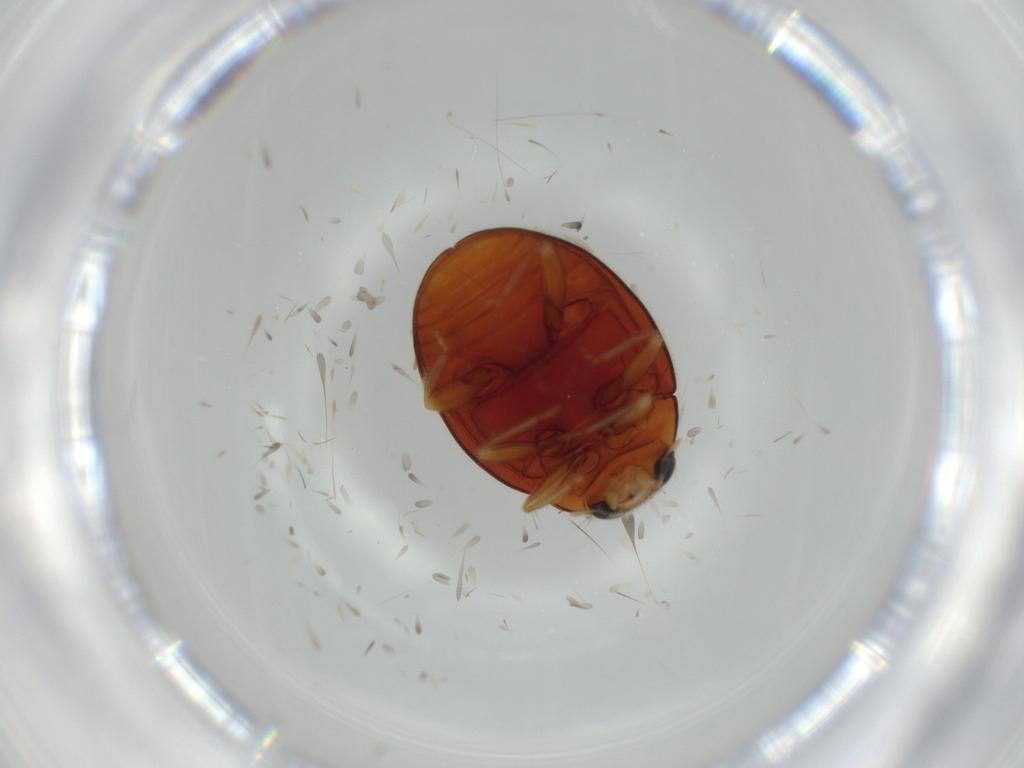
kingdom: Animalia
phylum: Arthropoda
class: Insecta
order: Coleoptera
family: Coccinellidae
